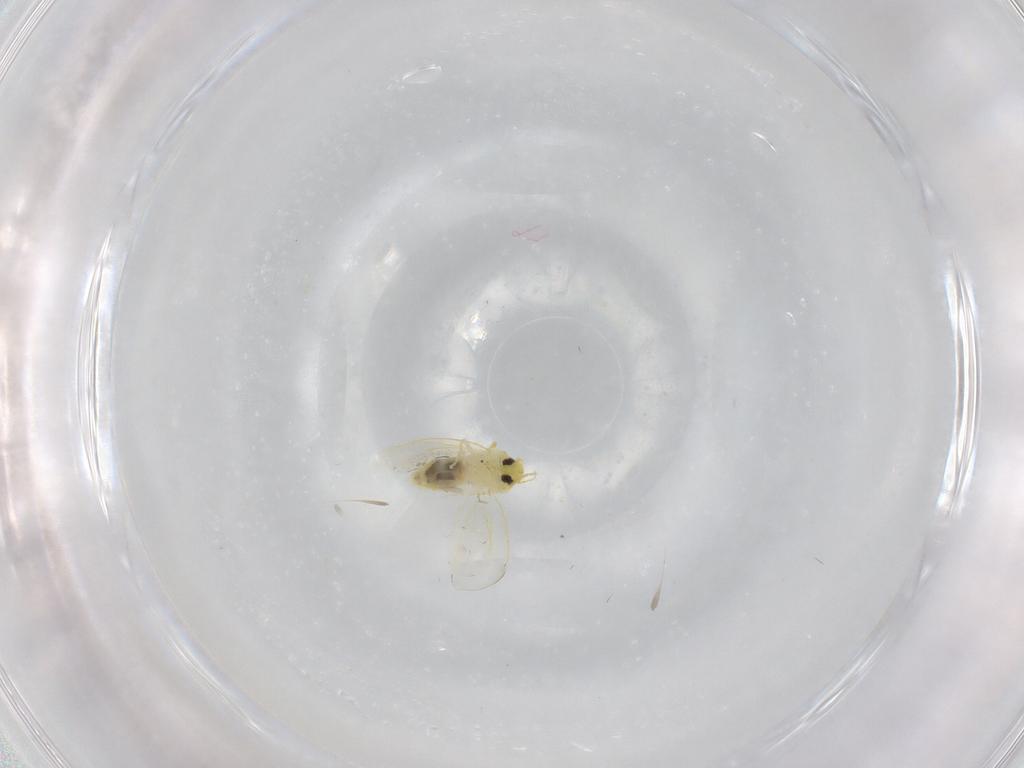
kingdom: Animalia
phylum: Arthropoda
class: Insecta
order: Hemiptera
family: Aleyrodidae
